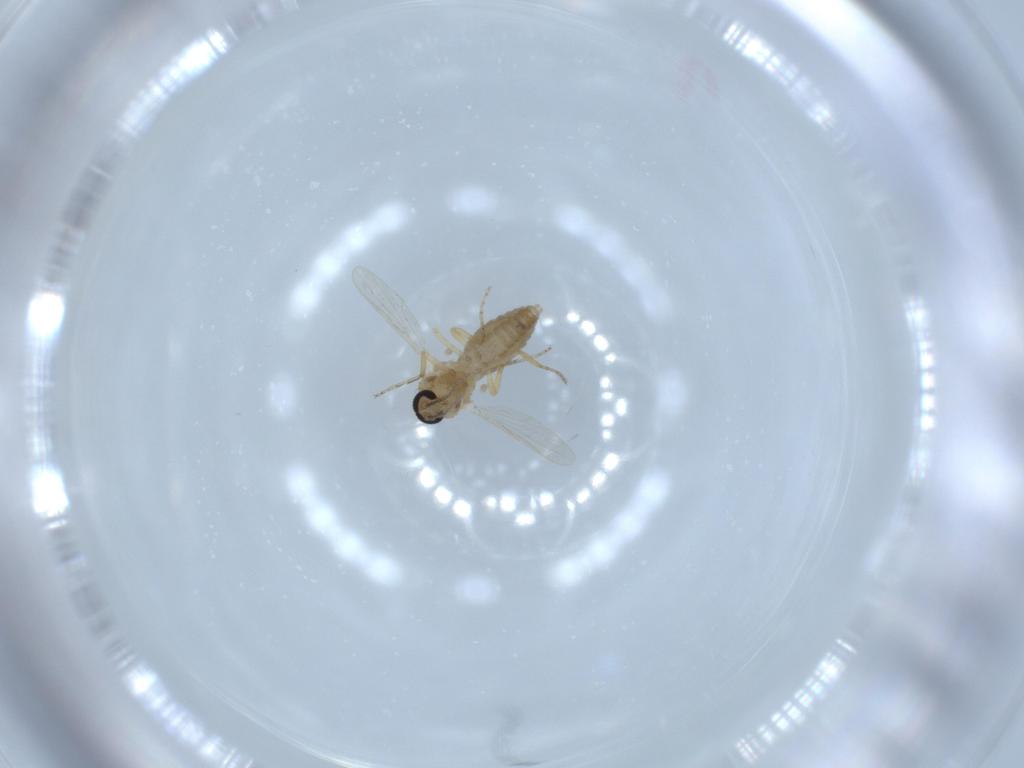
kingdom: Animalia
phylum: Arthropoda
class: Insecta
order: Diptera
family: Ceratopogonidae
